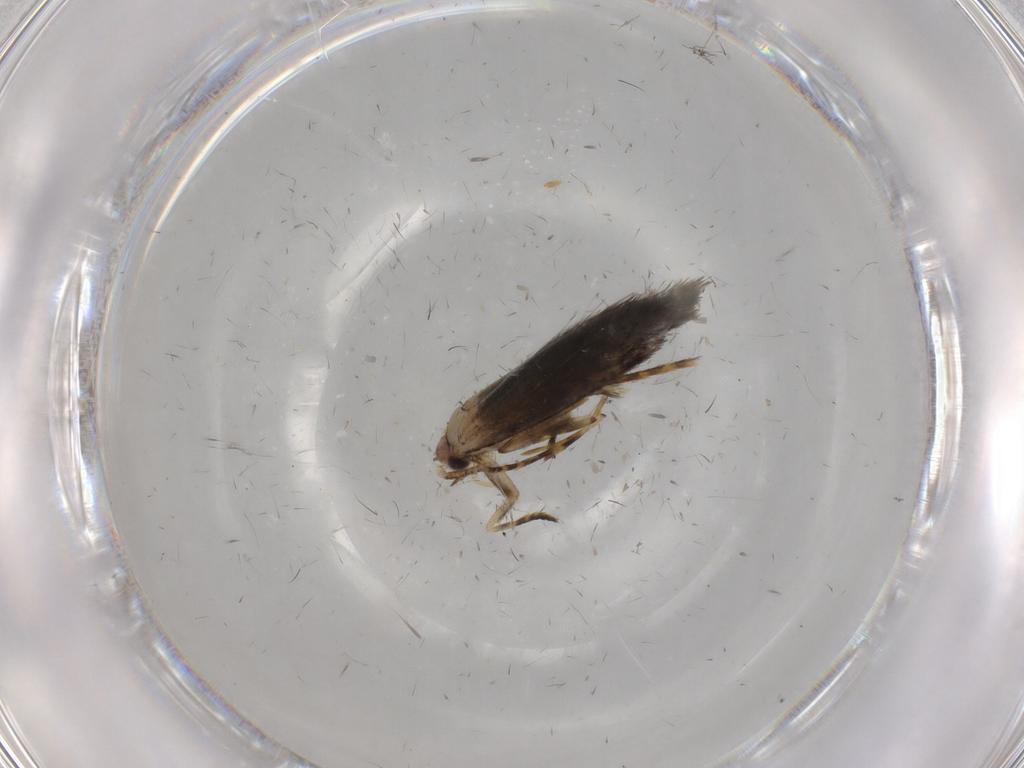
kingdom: Animalia
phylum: Arthropoda
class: Insecta
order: Lepidoptera
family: Tineidae
